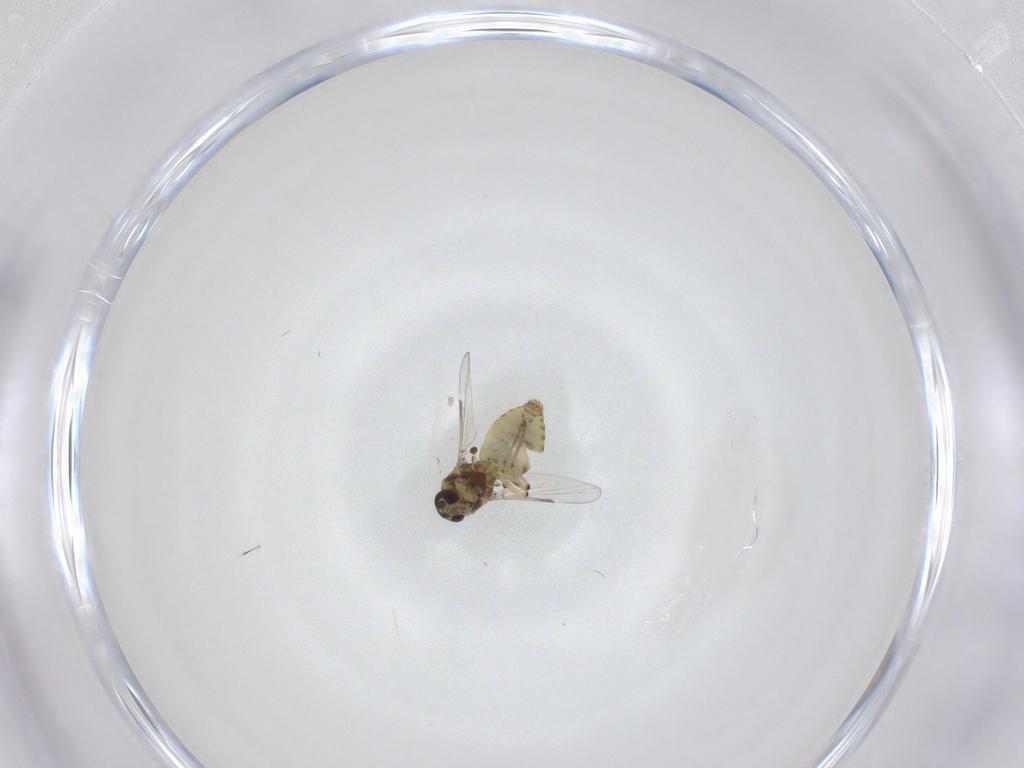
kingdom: Animalia
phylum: Arthropoda
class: Insecta
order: Diptera
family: Ceratopogonidae
